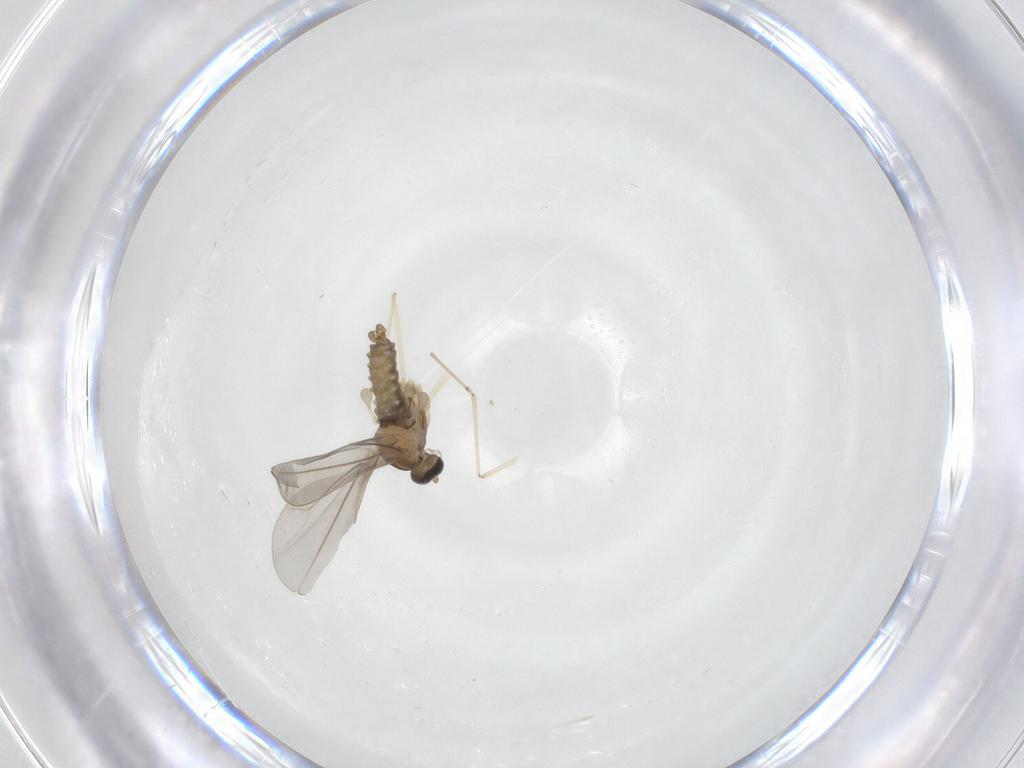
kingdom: Animalia
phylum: Arthropoda
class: Insecta
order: Diptera
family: Cecidomyiidae
